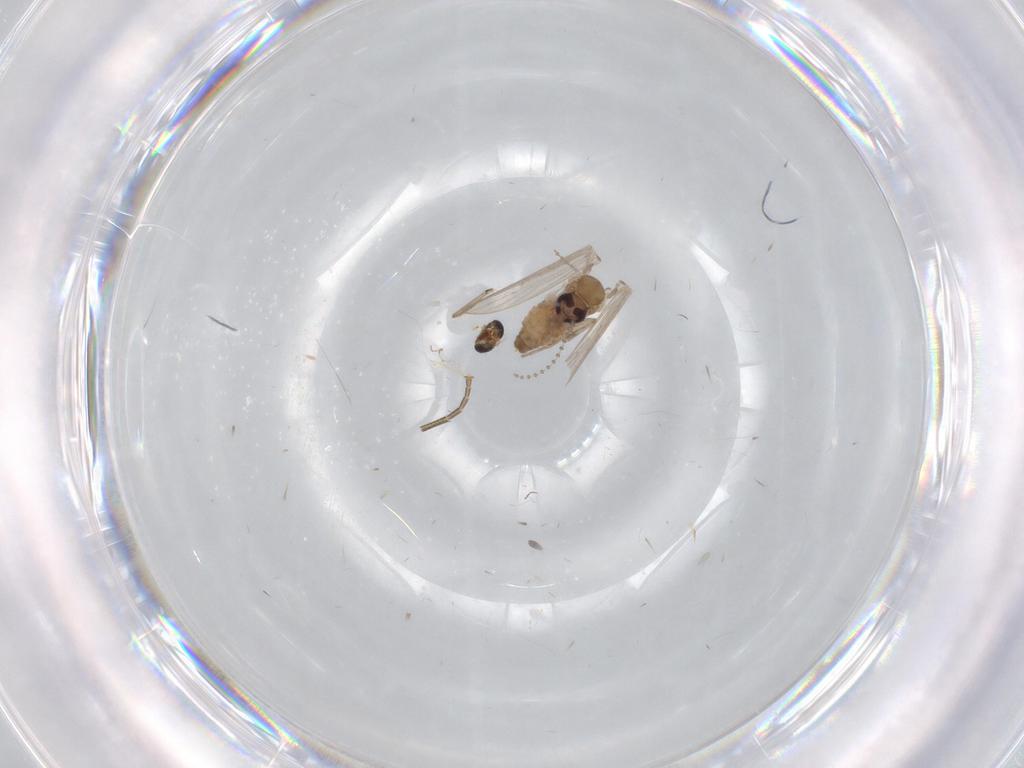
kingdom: Animalia
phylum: Arthropoda
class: Insecta
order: Diptera
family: Psychodidae
